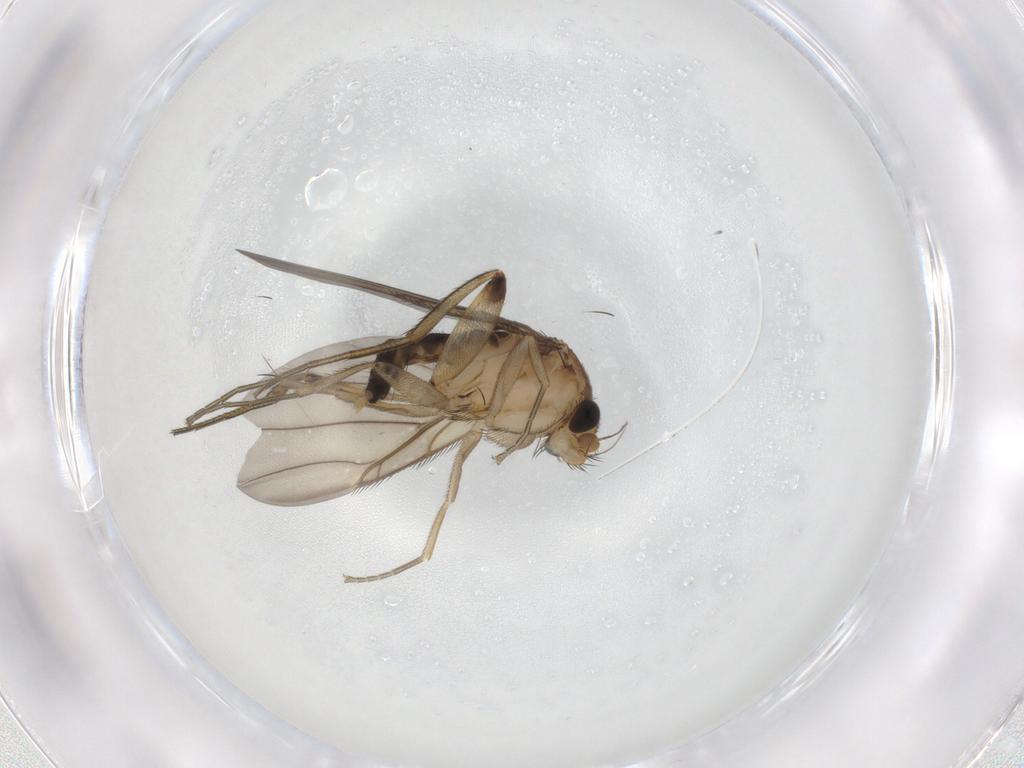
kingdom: Animalia
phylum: Arthropoda
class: Insecta
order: Diptera
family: Phoridae
